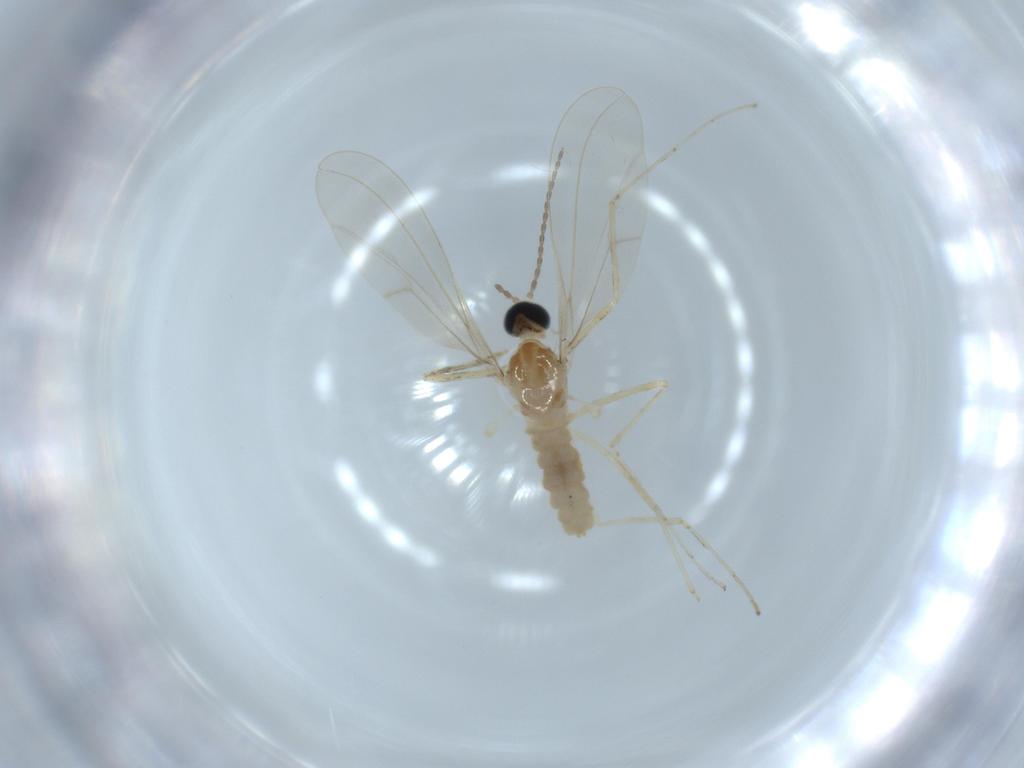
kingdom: Animalia
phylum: Arthropoda
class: Insecta
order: Diptera
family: Cecidomyiidae
